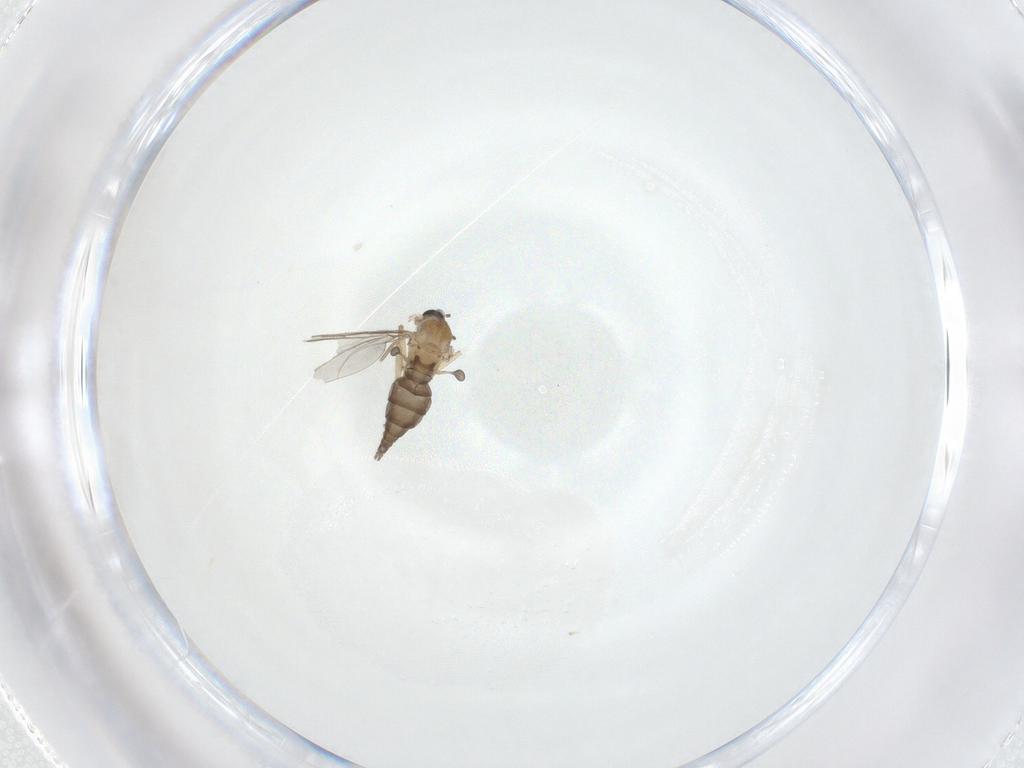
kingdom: Animalia
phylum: Arthropoda
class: Insecta
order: Diptera
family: Sciaridae
